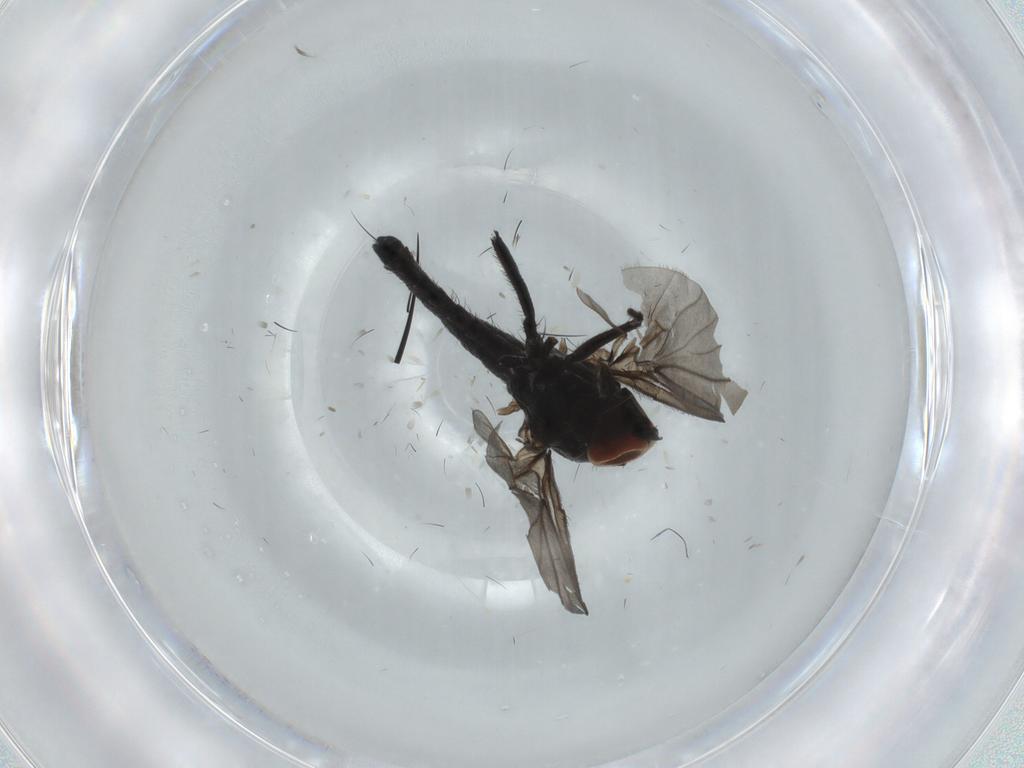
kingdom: Animalia
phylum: Arthropoda
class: Insecta
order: Diptera
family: Hybotidae
